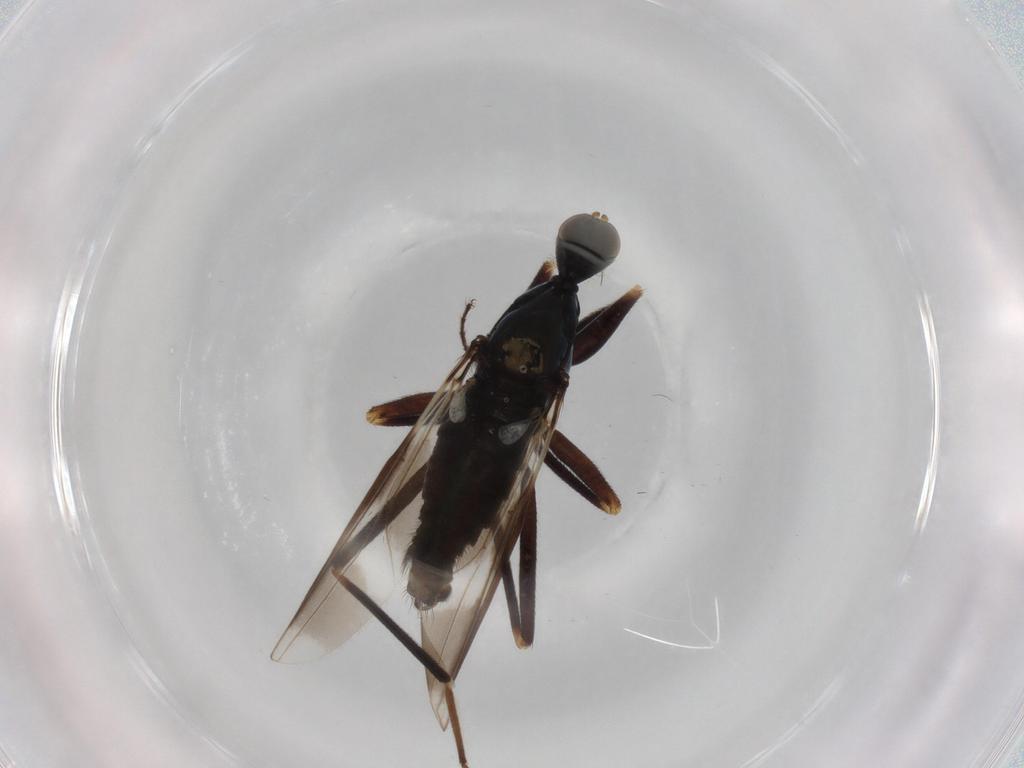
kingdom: Animalia
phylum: Arthropoda
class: Insecta
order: Diptera
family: Hybotidae
